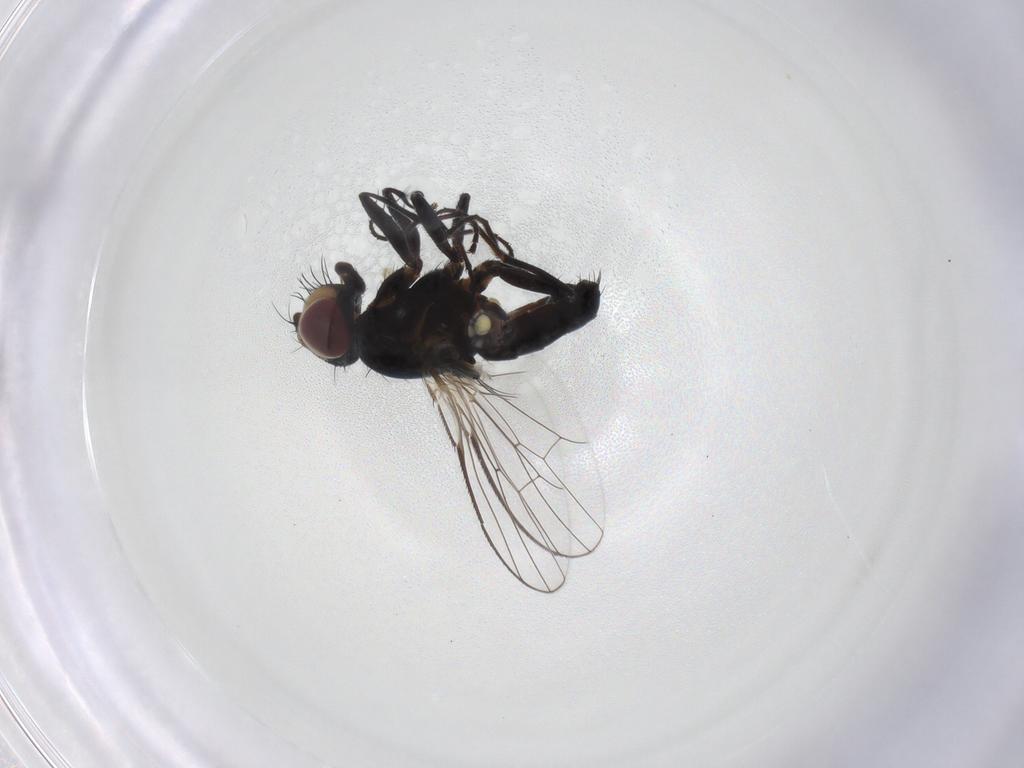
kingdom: Animalia
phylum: Arthropoda
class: Insecta
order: Diptera
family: Carnidae
